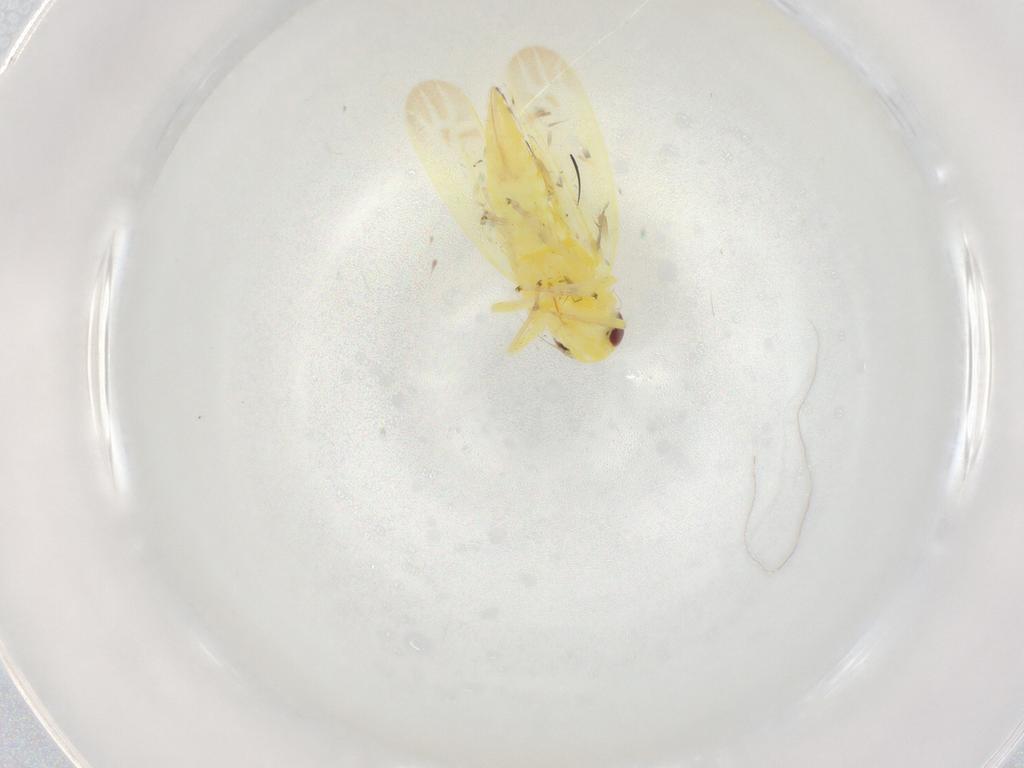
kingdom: Animalia
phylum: Arthropoda
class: Insecta
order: Hemiptera
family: Cicadellidae
